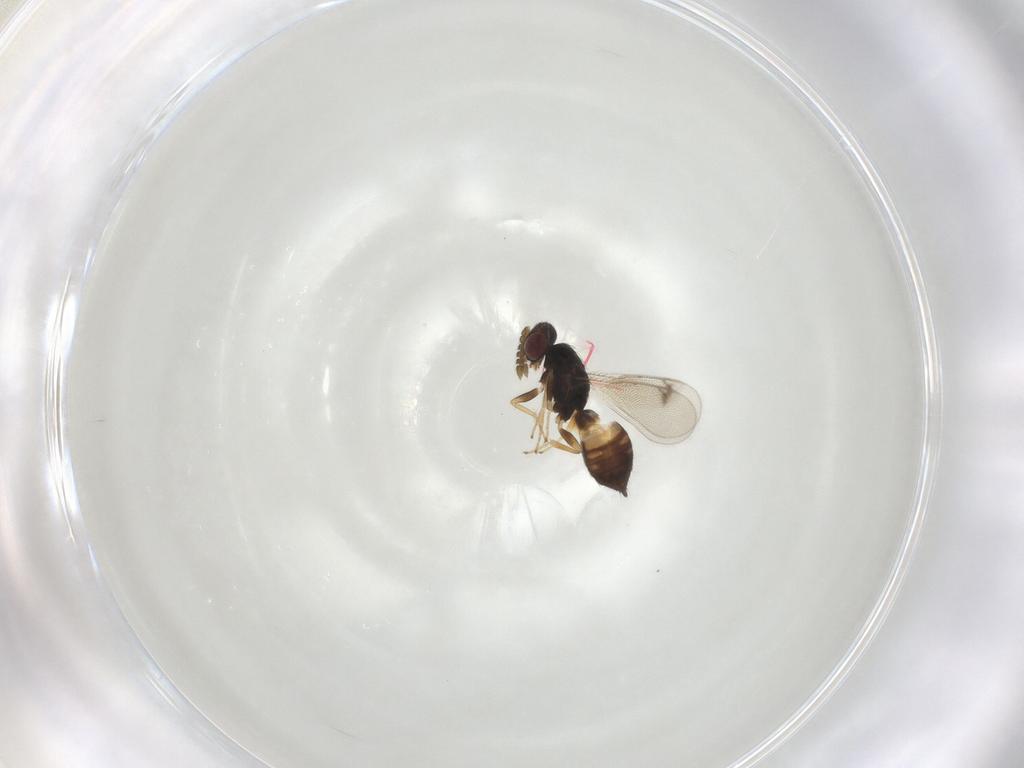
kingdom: Animalia
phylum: Arthropoda
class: Insecta
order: Hymenoptera
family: Eulophidae
